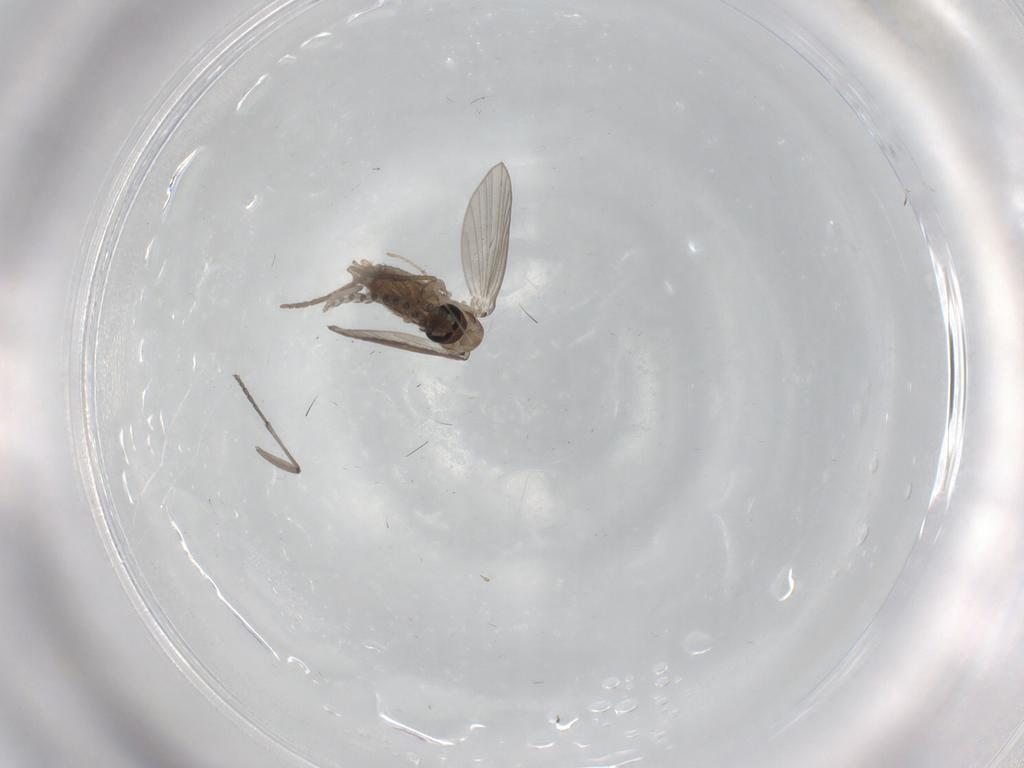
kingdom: Animalia
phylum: Arthropoda
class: Insecta
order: Diptera
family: Psychodidae
